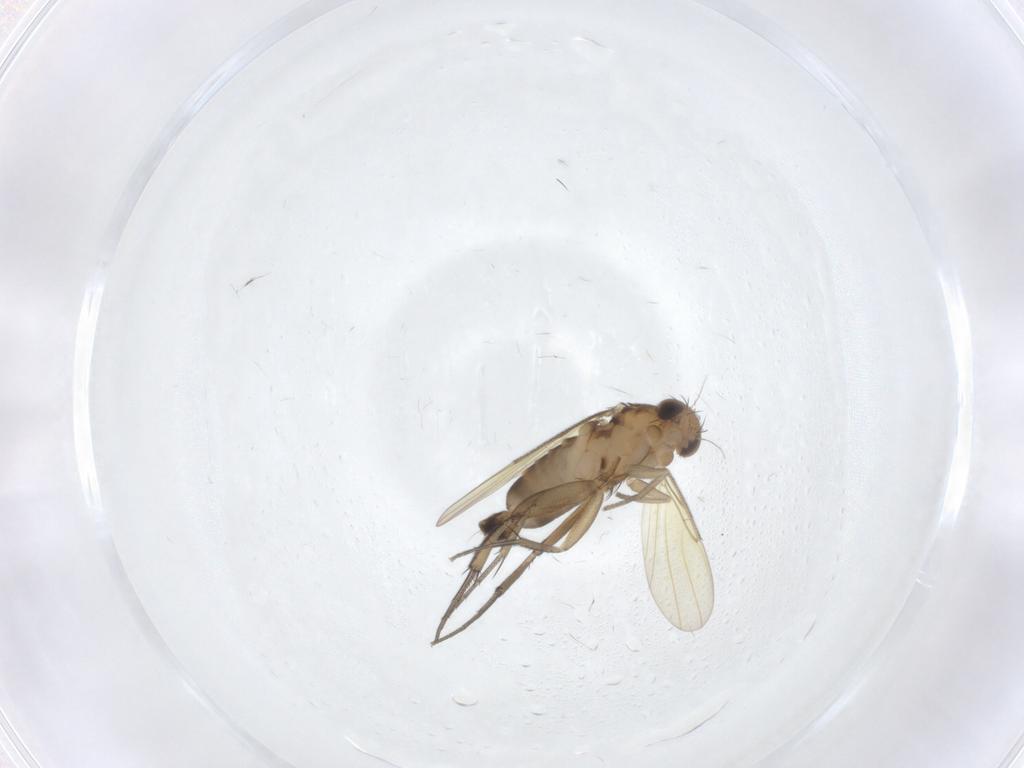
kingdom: Animalia
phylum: Arthropoda
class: Insecta
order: Diptera
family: Phoridae
